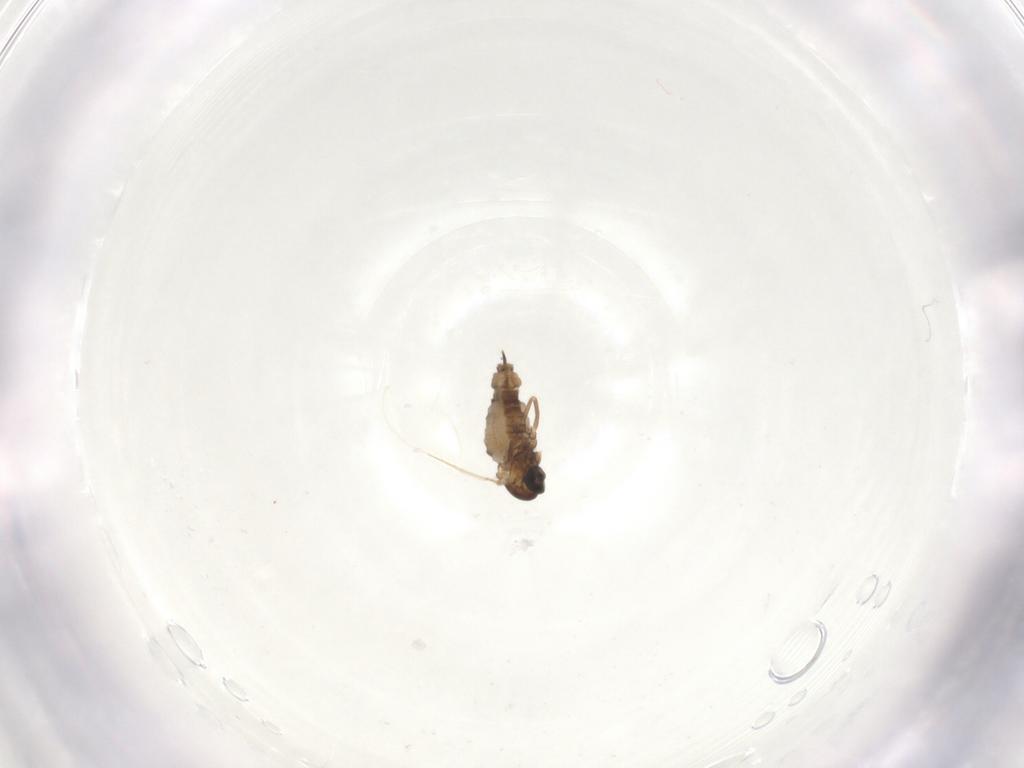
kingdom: Animalia
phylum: Arthropoda
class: Insecta
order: Diptera
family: Cecidomyiidae
